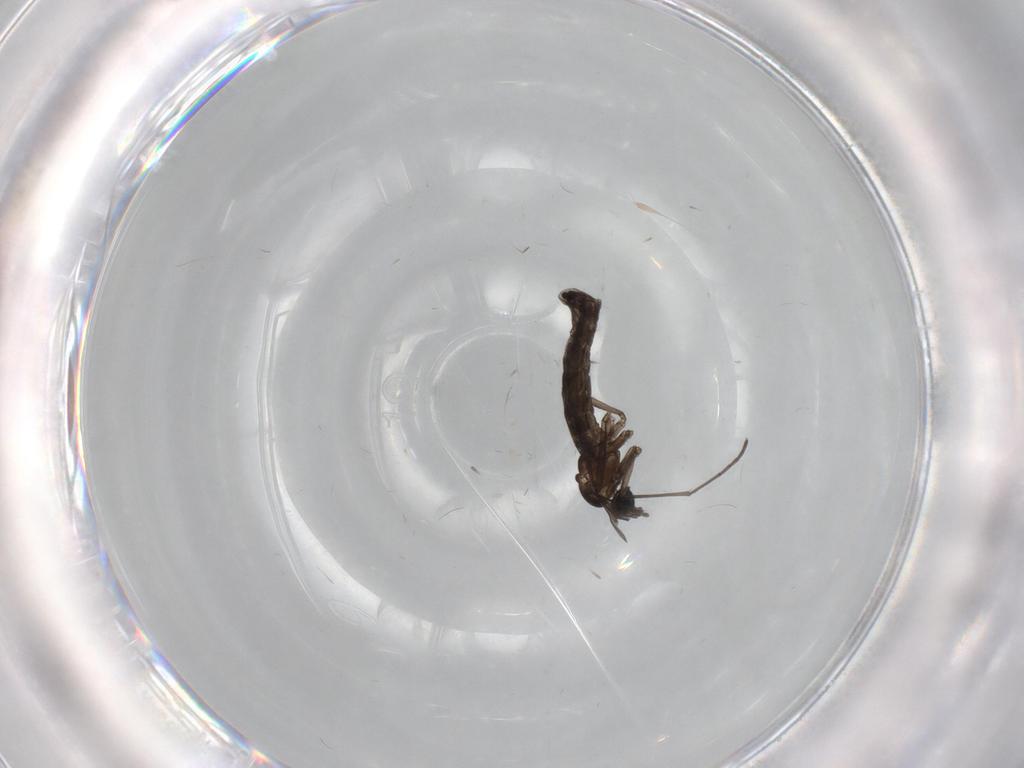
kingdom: Animalia
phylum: Arthropoda
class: Insecta
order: Diptera
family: Sciaridae
